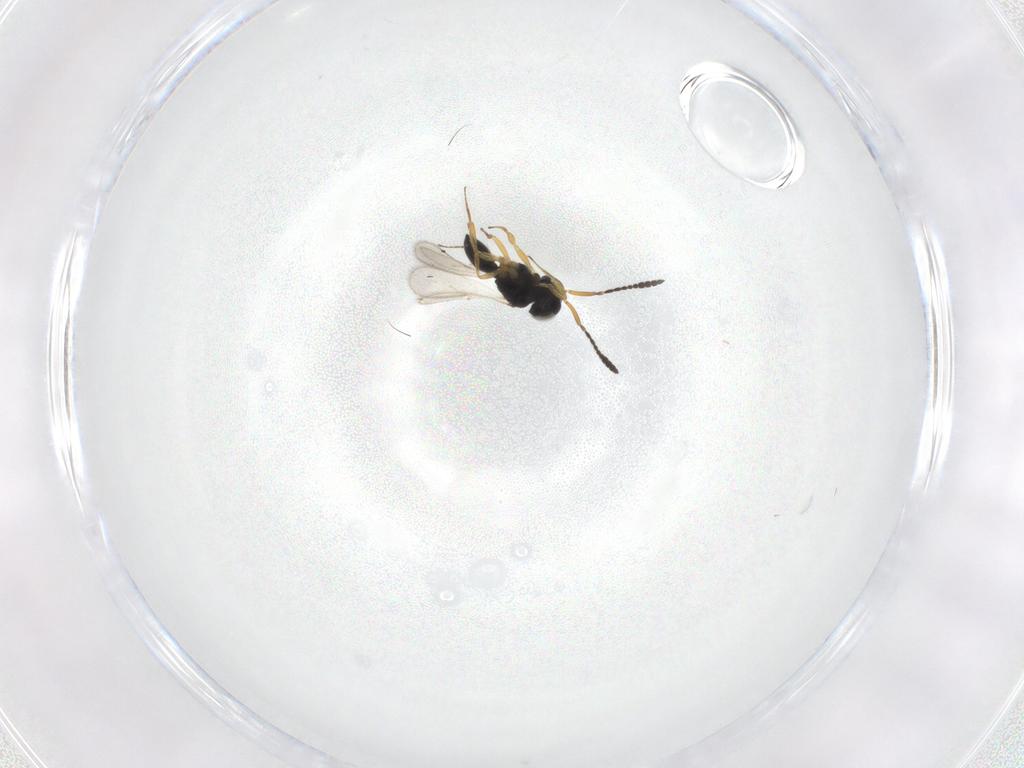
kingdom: Animalia
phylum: Arthropoda
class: Insecta
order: Hymenoptera
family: Scelionidae
